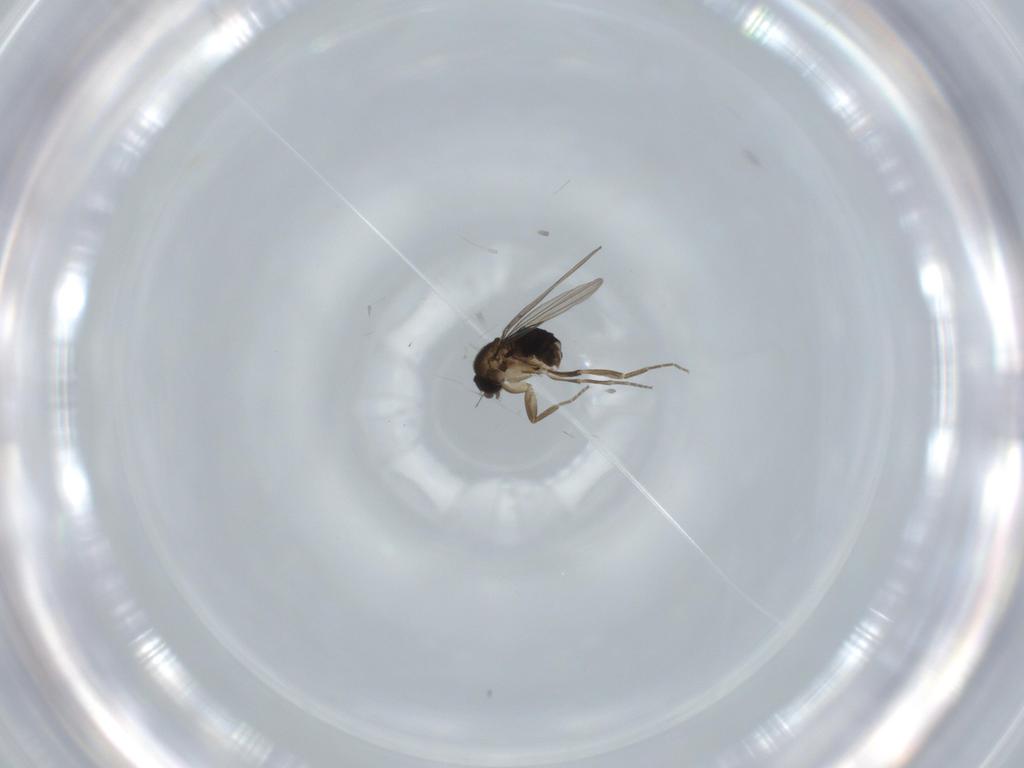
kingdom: Animalia
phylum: Arthropoda
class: Insecta
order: Diptera
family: Phoridae
